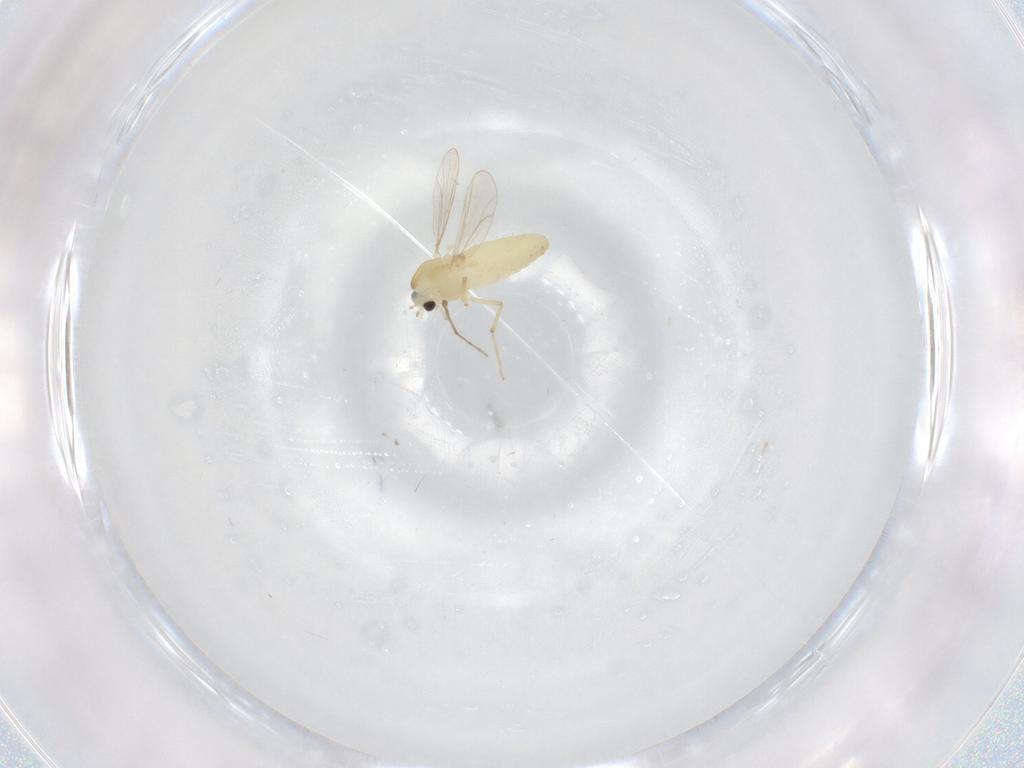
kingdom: Animalia
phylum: Arthropoda
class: Insecta
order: Diptera
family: Chironomidae
